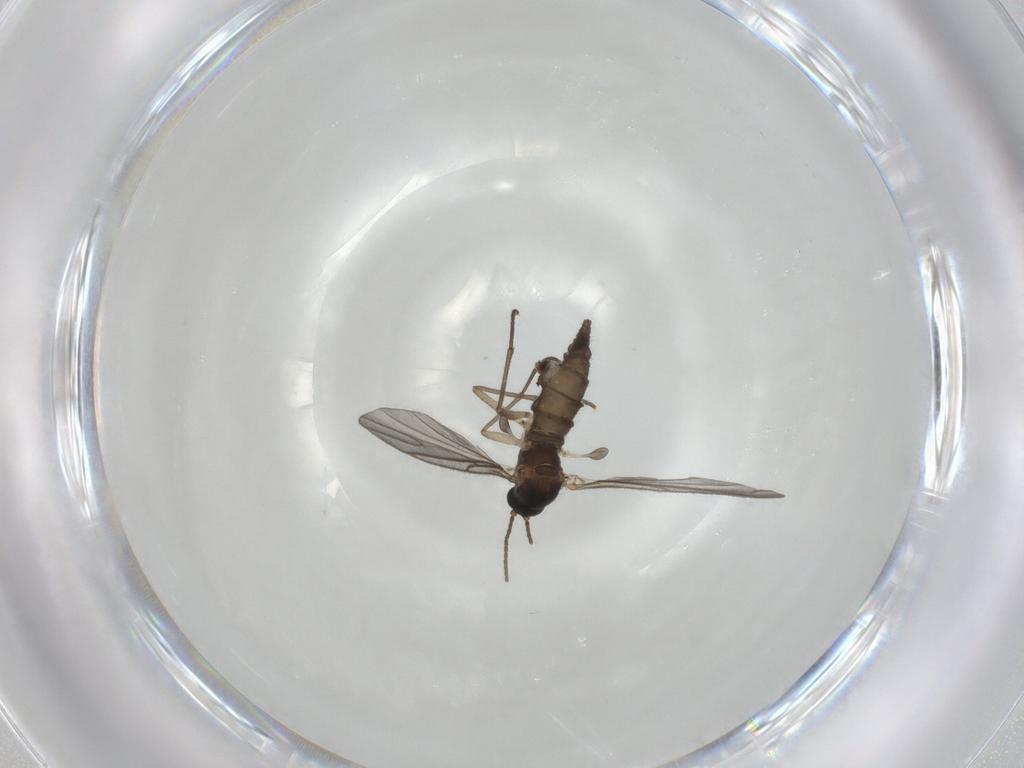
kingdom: Animalia
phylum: Arthropoda
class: Insecta
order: Diptera
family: Sciaridae
